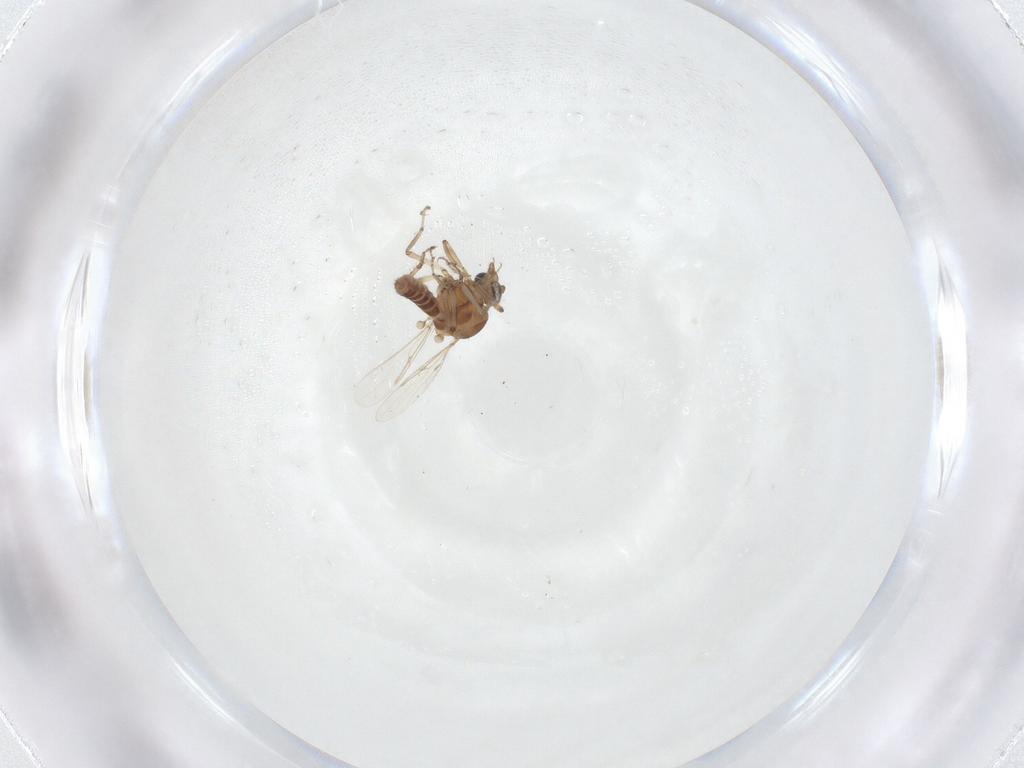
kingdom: Animalia
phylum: Arthropoda
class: Insecta
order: Diptera
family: Ceratopogonidae
